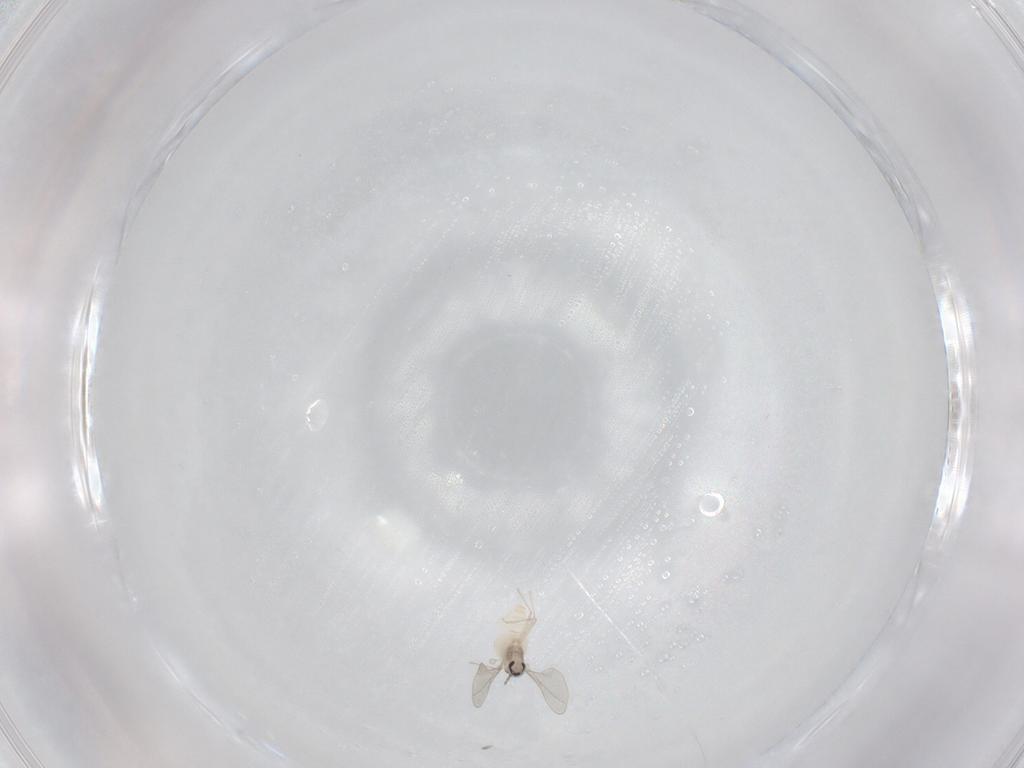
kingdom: Animalia
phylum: Arthropoda
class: Insecta
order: Diptera
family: Cecidomyiidae
